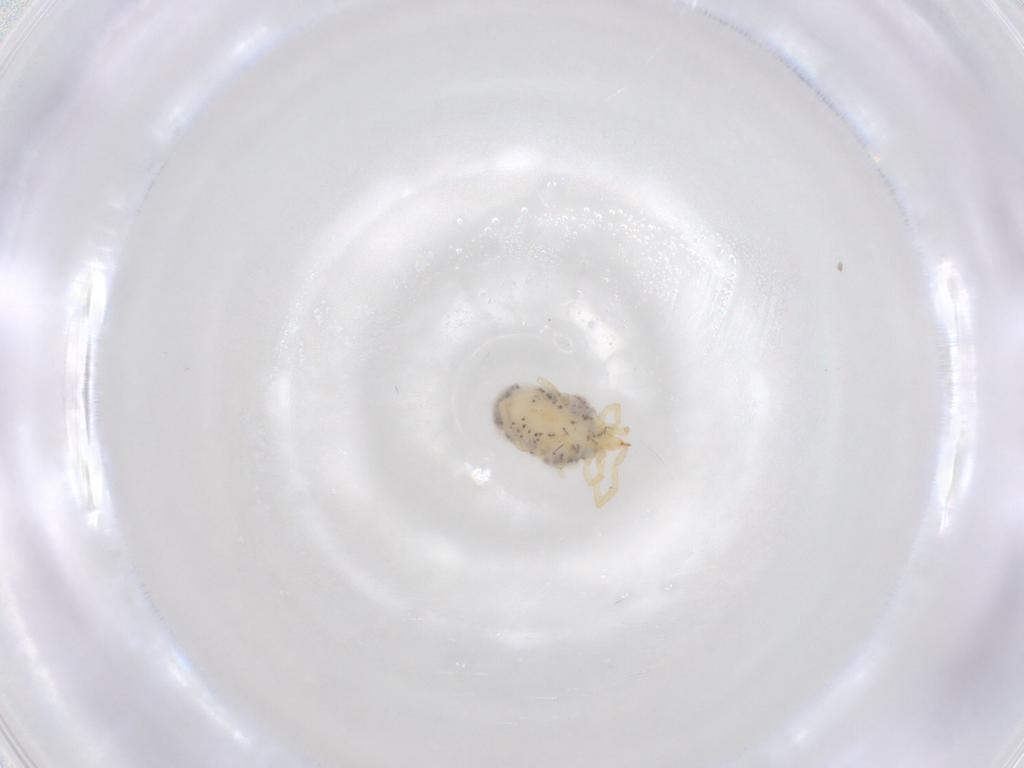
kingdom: Animalia
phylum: Arthropoda
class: Arachnida
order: Trombidiformes
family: Erythraeidae
